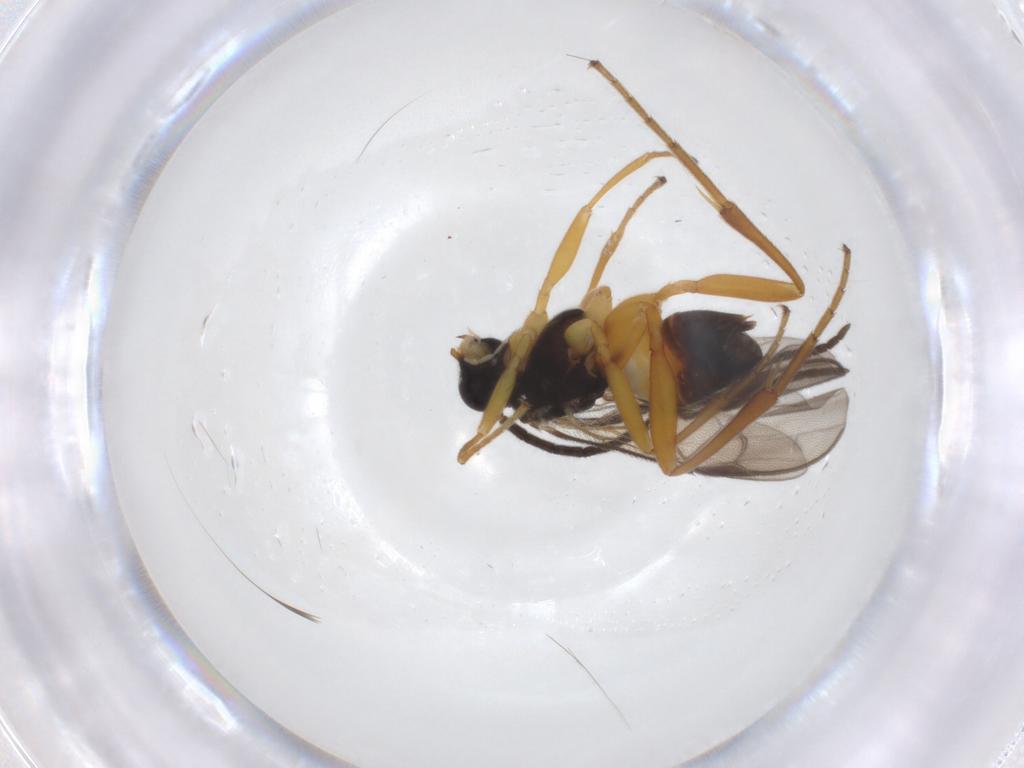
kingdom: Animalia
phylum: Arthropoda
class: Insecta
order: Hymenoptera
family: Braconidae
